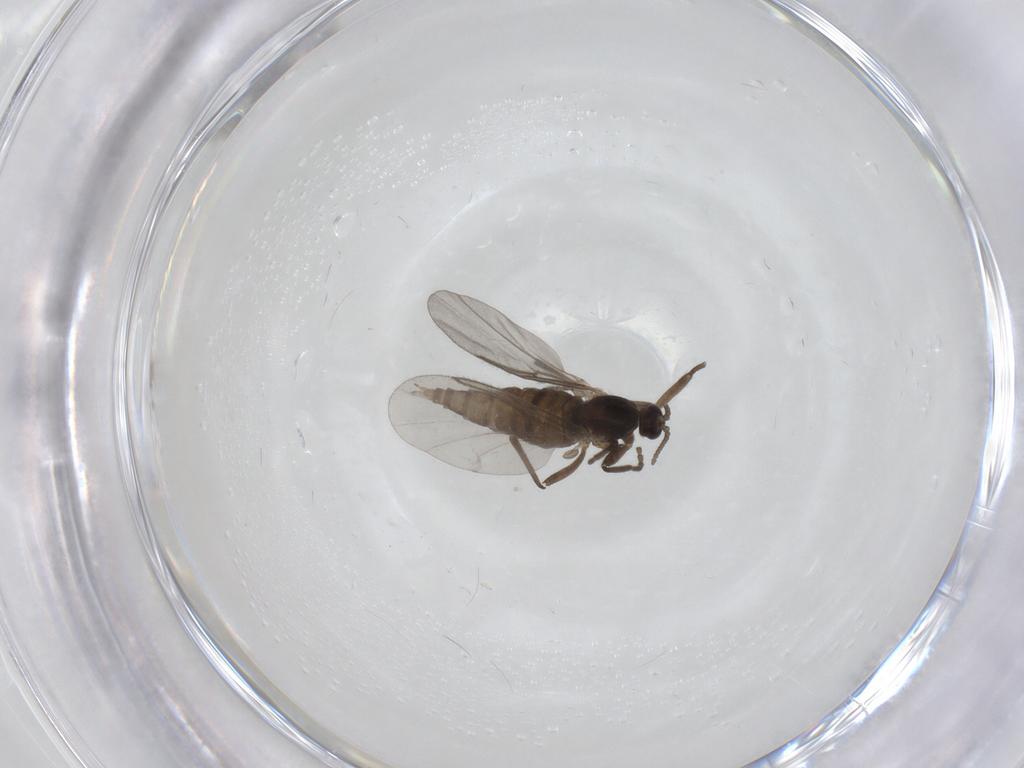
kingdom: Animalia
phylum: Arthropoda
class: Insecta
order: Diptera
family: Cecidomyiidae
